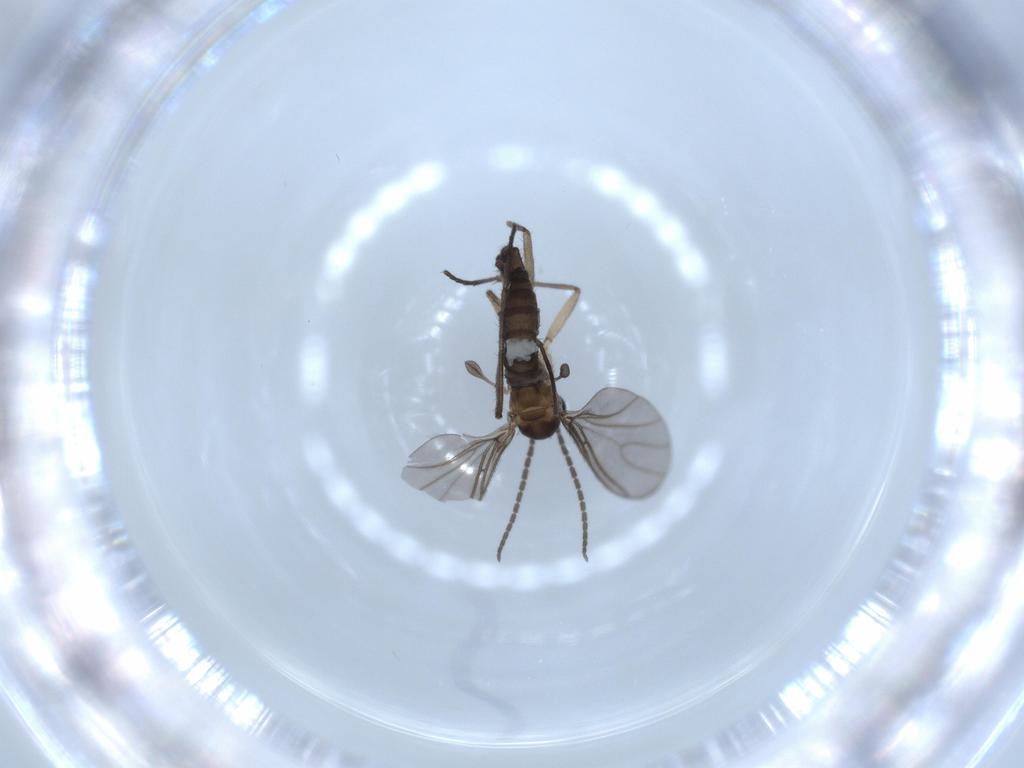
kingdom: Animalia
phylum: Arthropoda
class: Insecta
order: Diptera
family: Sciaridae
